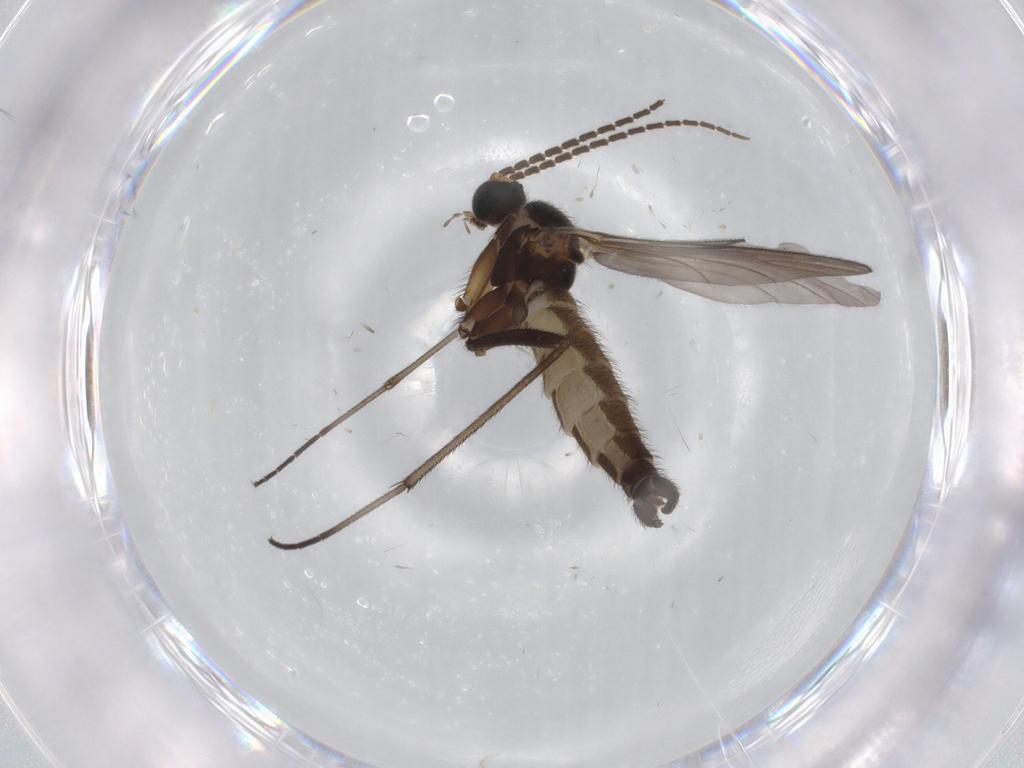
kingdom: Animalia
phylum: Arthropoda
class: Insecta
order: Diptera
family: Sciaridae
